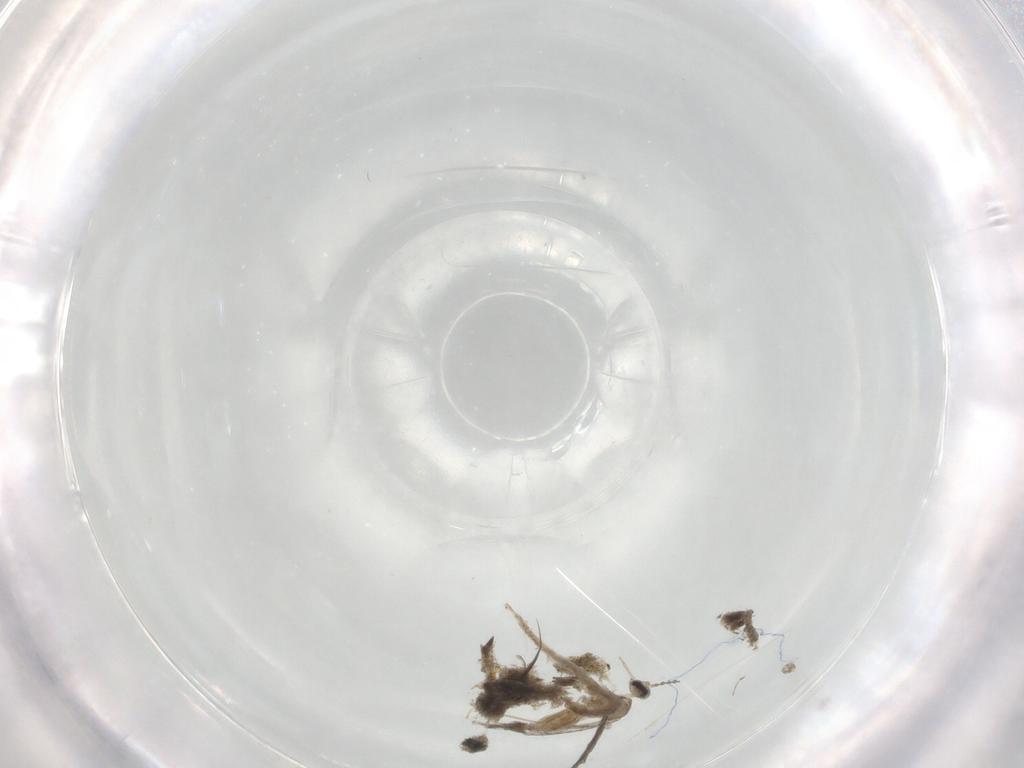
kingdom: Animalia
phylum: Arthropoda
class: Insecta
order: Diptera
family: Cecidomyiidae
